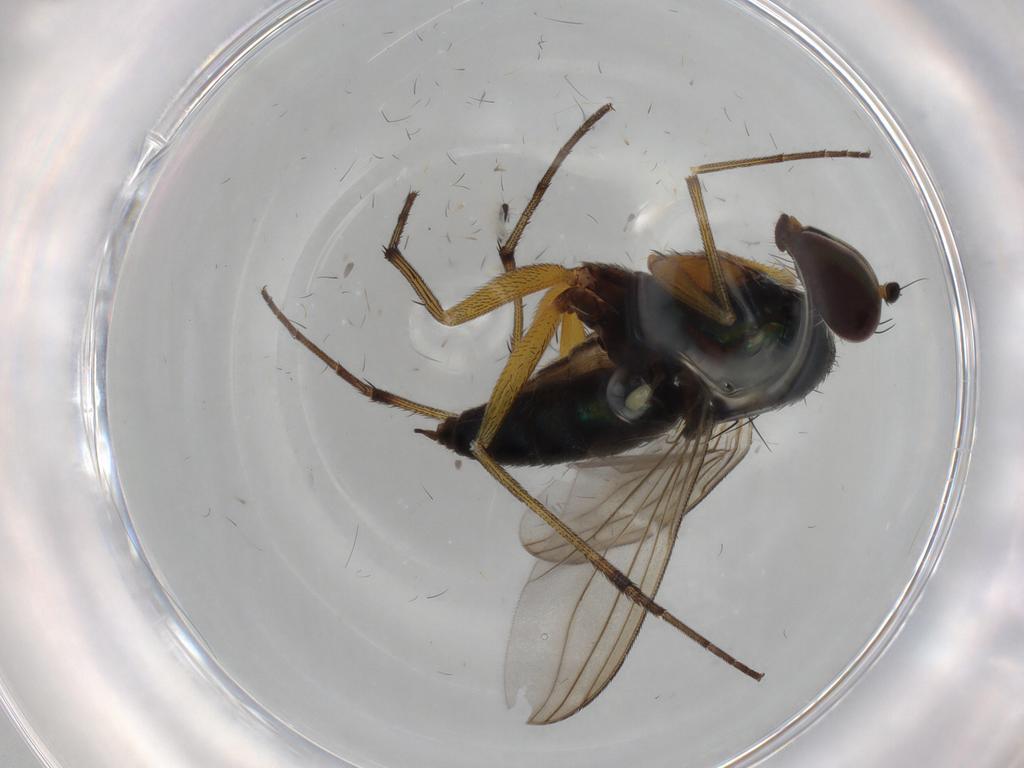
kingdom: Animalia
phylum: Arthropoda
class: Insecta
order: Diptera
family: Dolichopodidae
